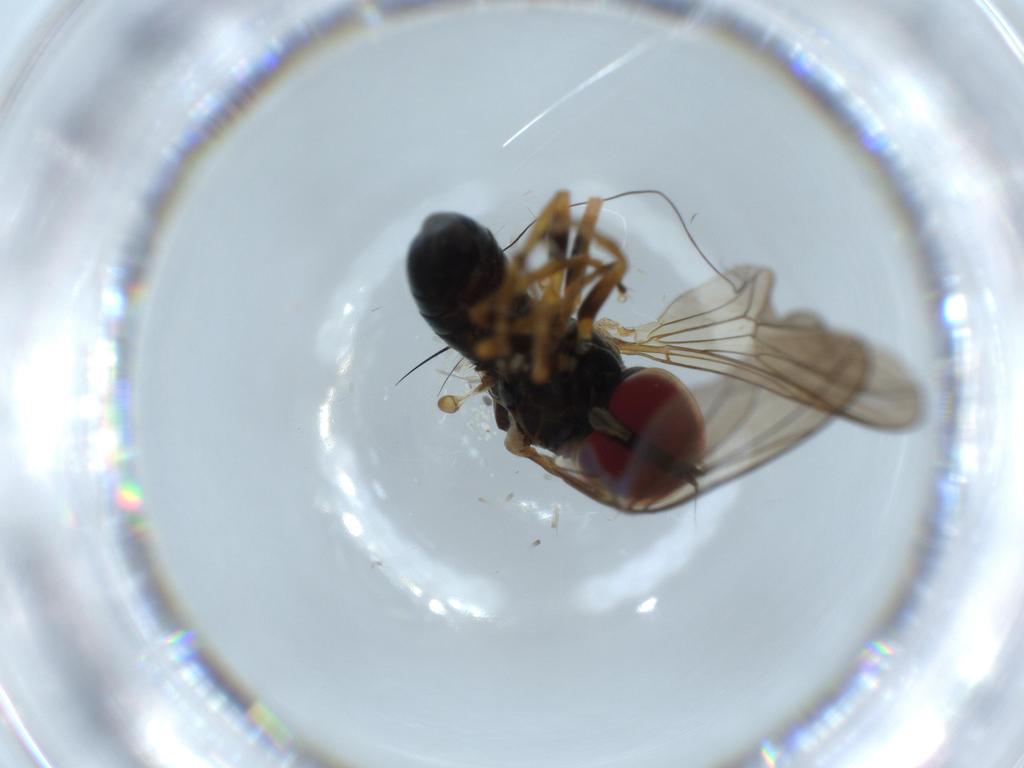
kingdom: Animalia
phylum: Arthropoda
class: Insecta
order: Diptera
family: Pipunculidae
